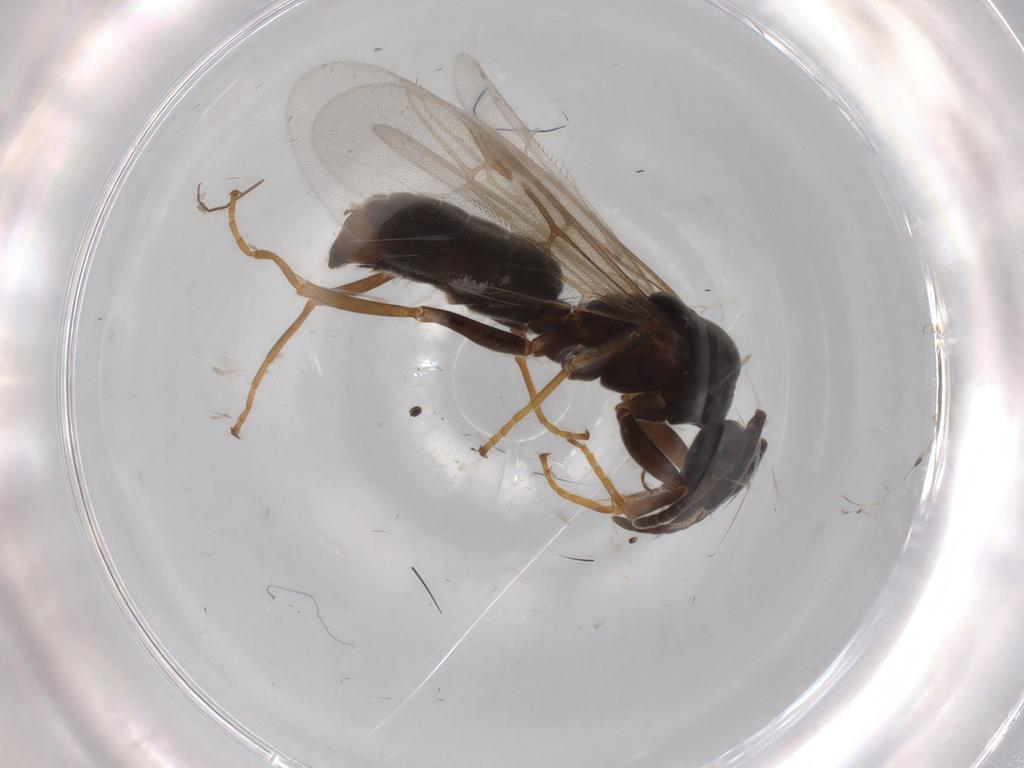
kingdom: Animalia
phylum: Arthropoda
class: Insecta
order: Hymenoptera
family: Formicidae
